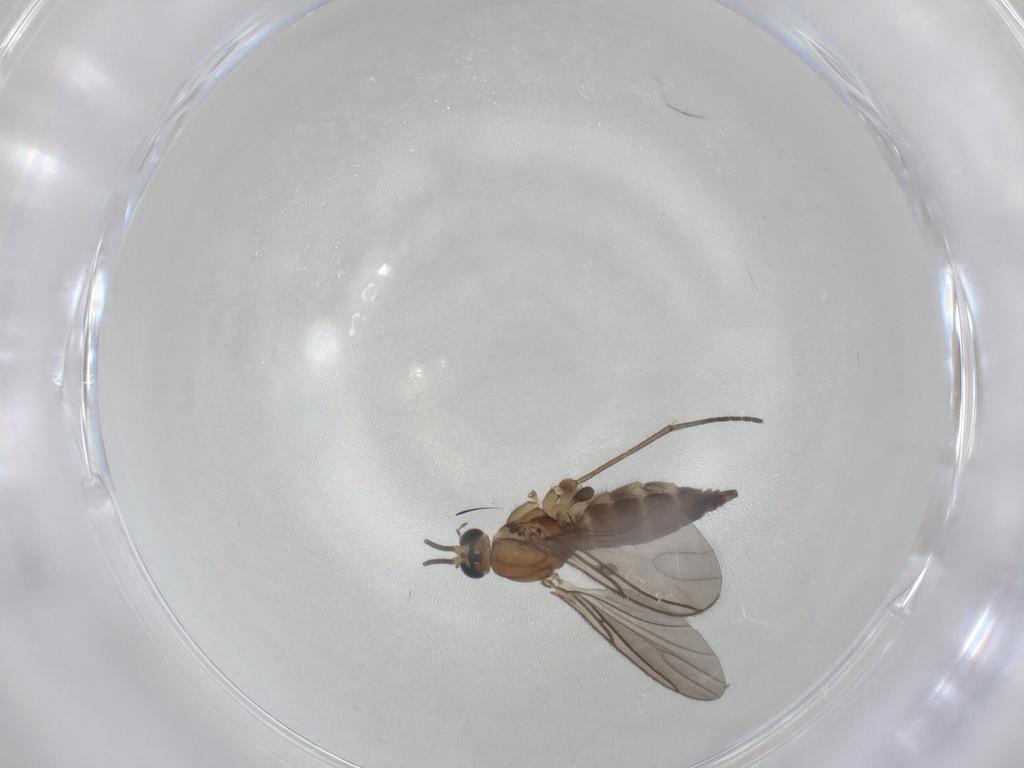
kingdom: Animalia
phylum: Arthropoda
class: Insecta
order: Diptera
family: Sciaridae
